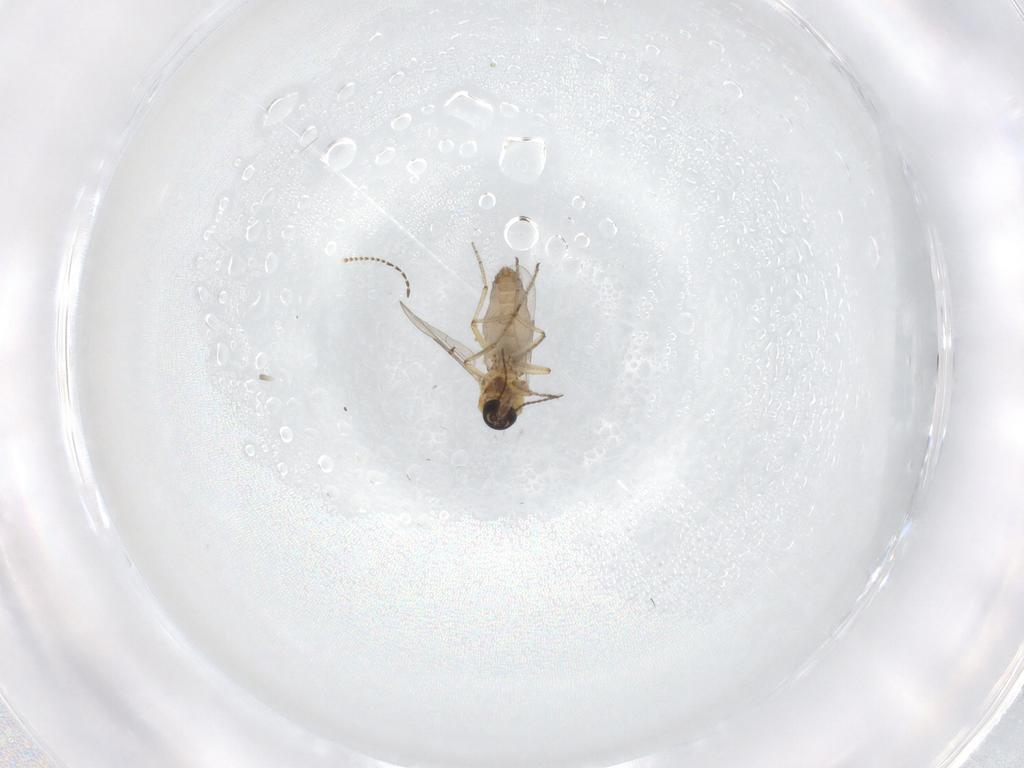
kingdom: Animalia
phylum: Arthropoda
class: Insecta
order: Diptera
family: Ceratopogonidae
